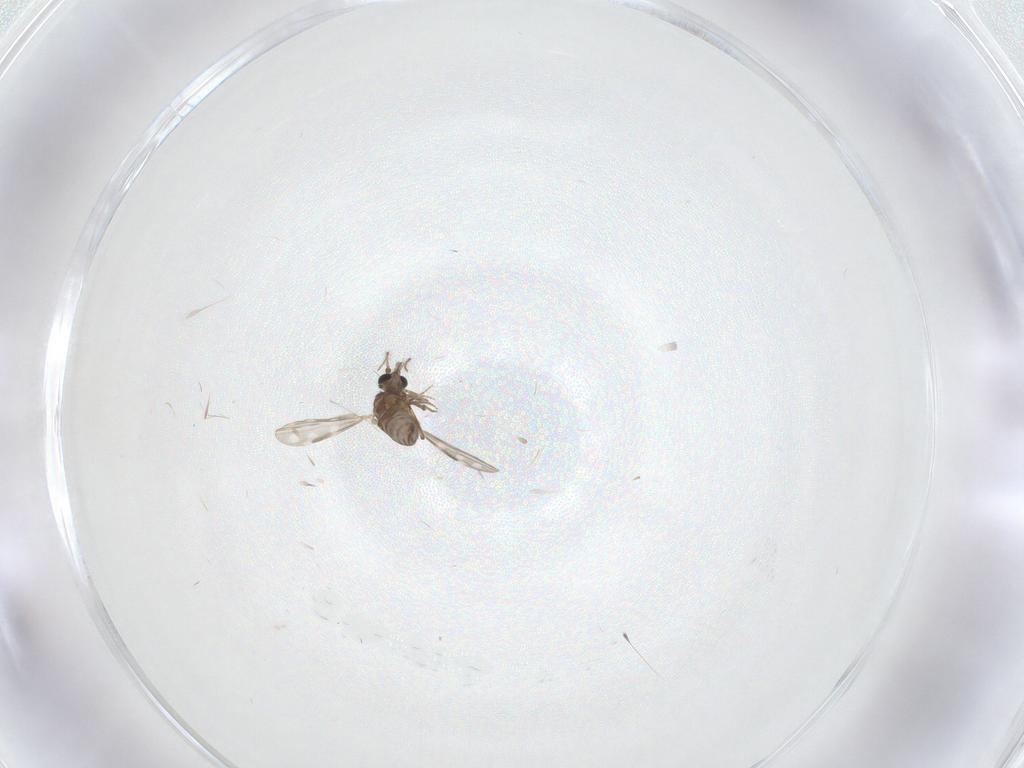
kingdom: Animalia
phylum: Arthropoda
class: Insecta
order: Diptera
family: Ceratopogonidae
